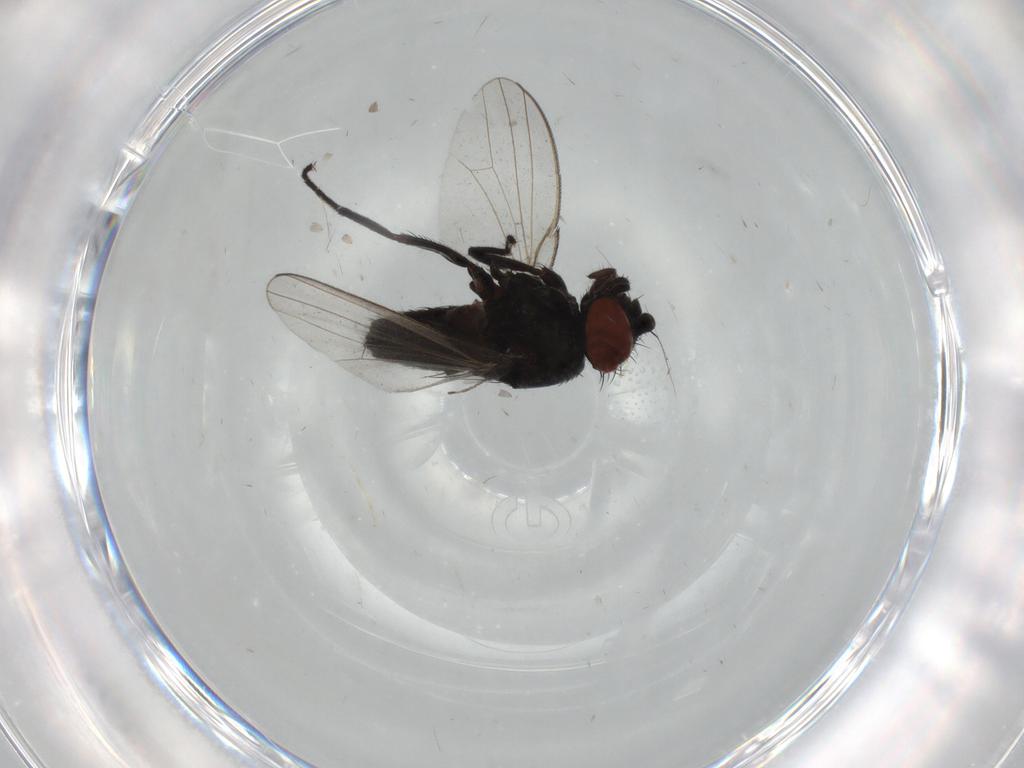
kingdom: Animalia
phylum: Arthropoda
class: Insecta
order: Diptera
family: Milichiidae
